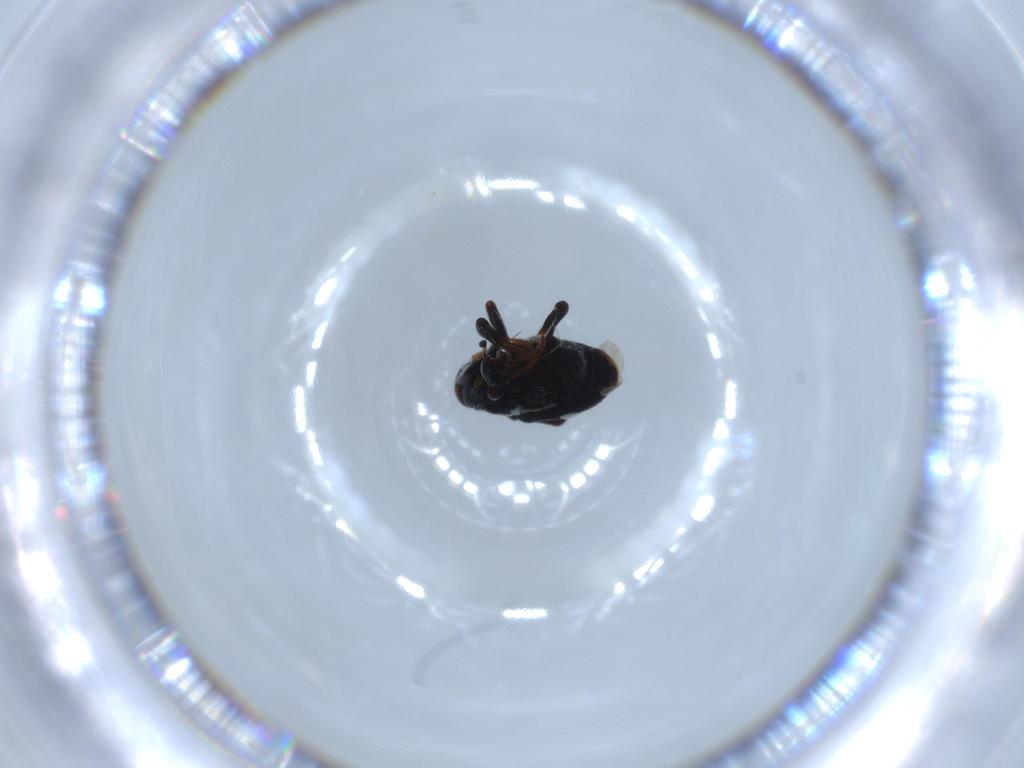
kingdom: Animalia
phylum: Arthropoda
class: Insecta
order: Coleoptera
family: Curculionidae
